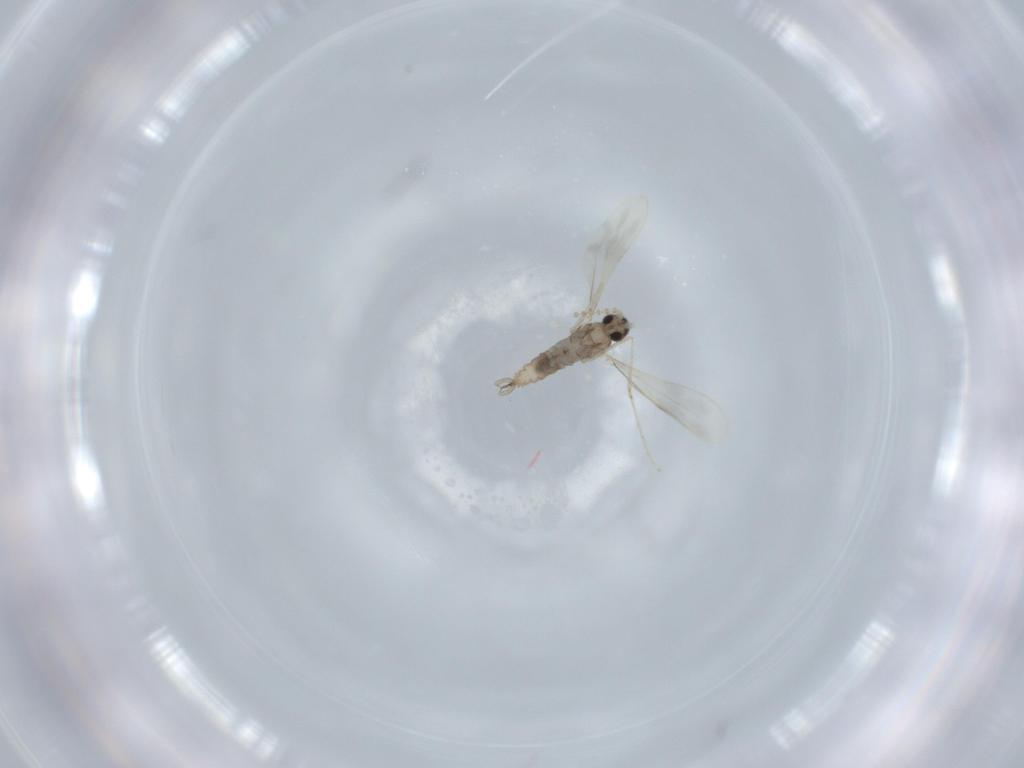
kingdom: Animalia
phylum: Arthropoda
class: Insecta
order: Diptera
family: Cecidomyiidae
